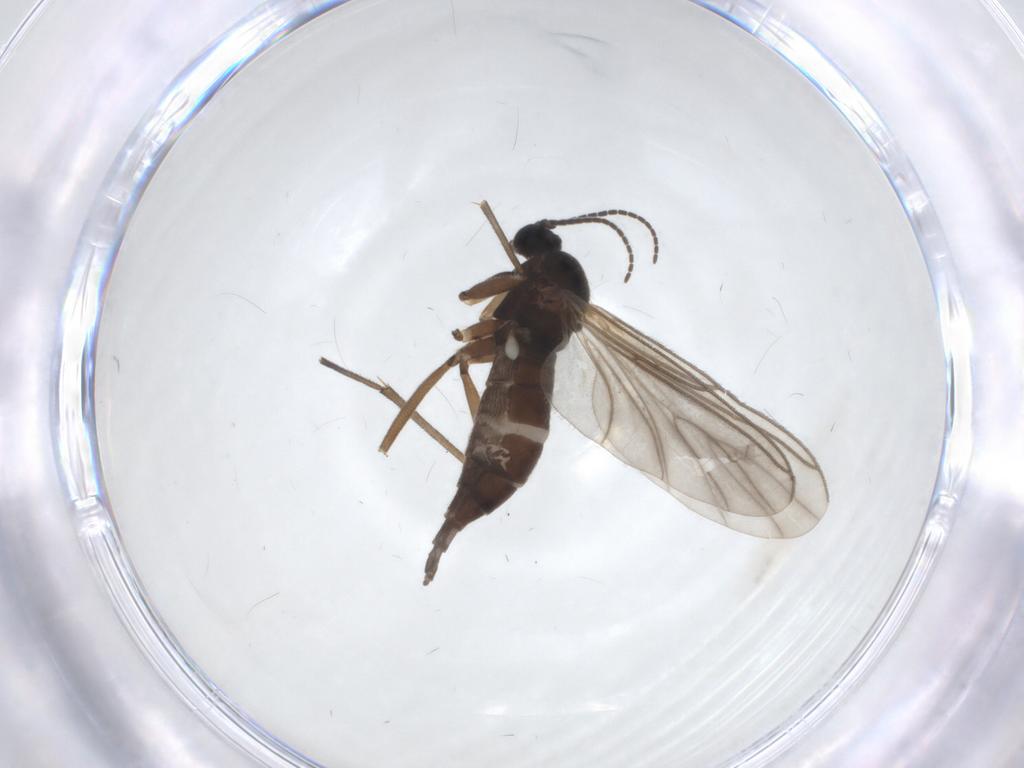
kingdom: Animalia
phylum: Arthropoda
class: Insecta
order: Diptera
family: Sciaridae
